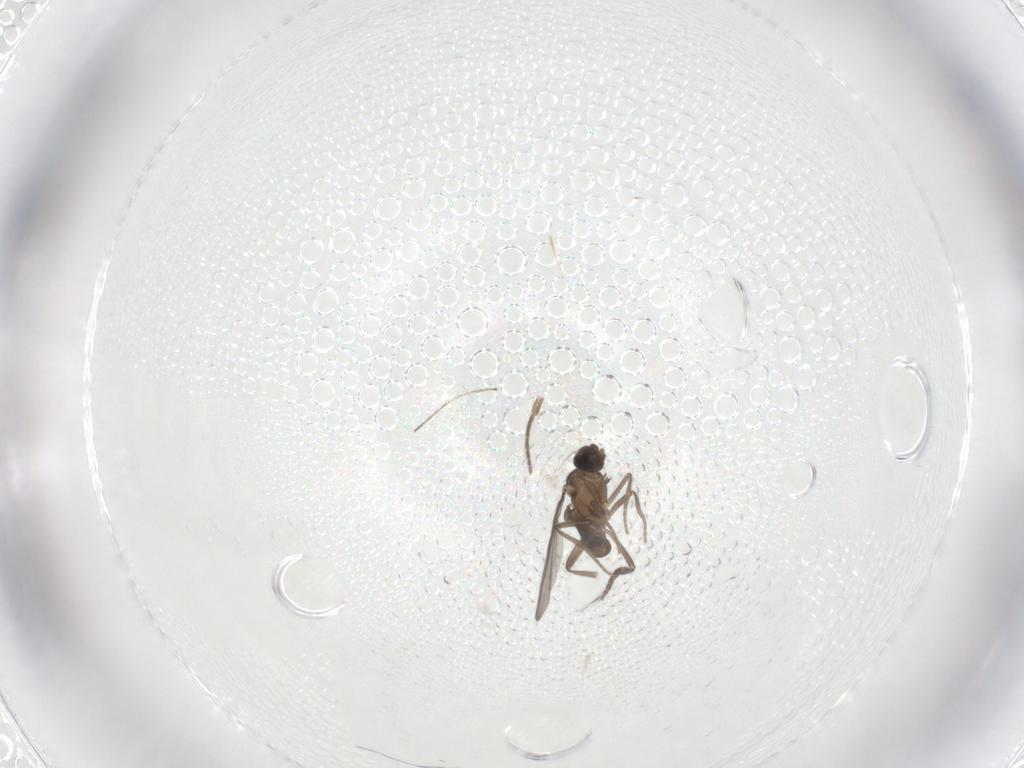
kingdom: Animalia
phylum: Arthropoda
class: Insecta
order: Diptera
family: Cecidomyiidae
